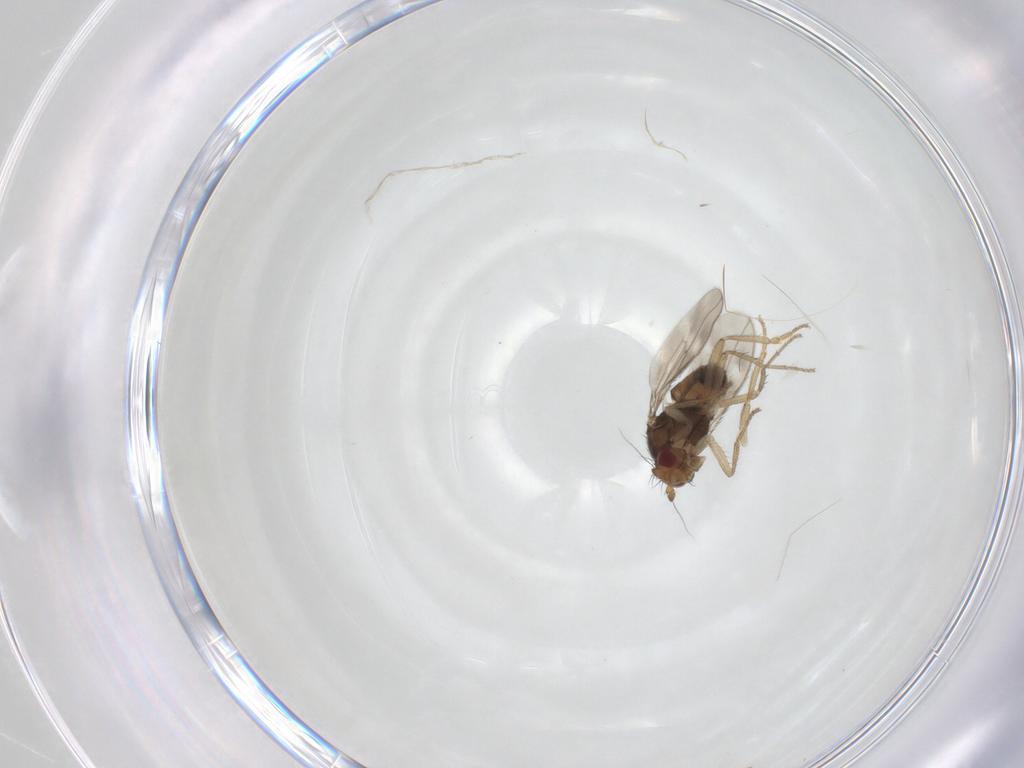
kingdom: Animalia
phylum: Arthropoda
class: Insecta
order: Diptera
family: Sphaeroceridae
